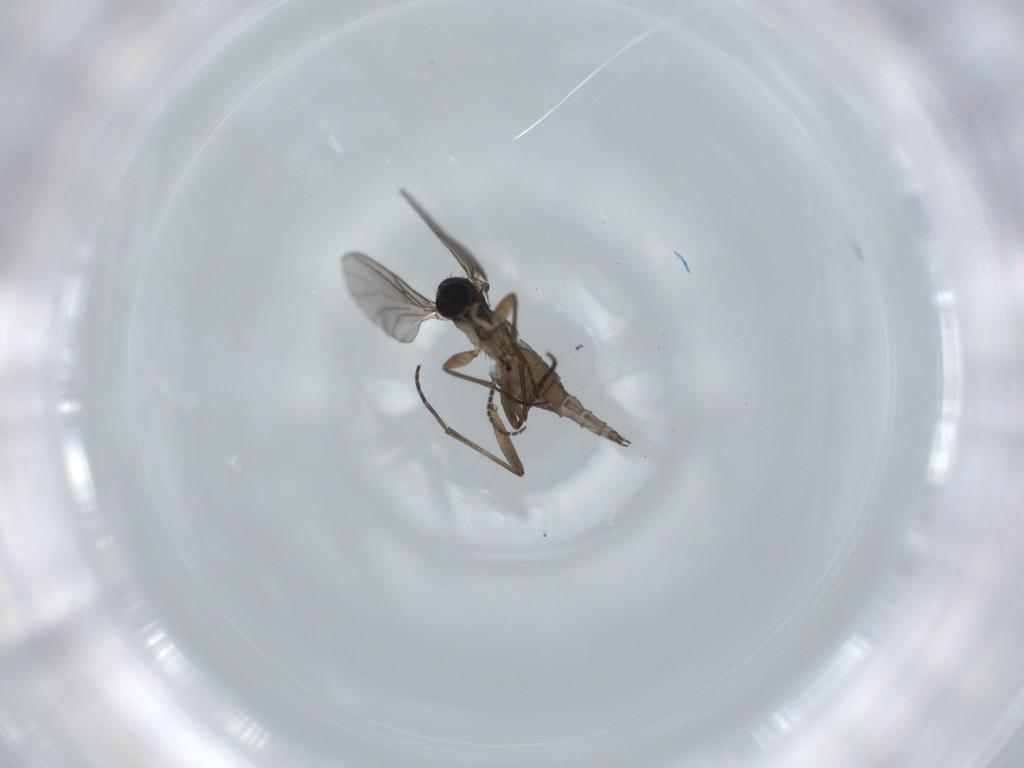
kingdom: Animalia
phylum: Arthropoda
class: Insecta
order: Diptera
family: Sciaridae
